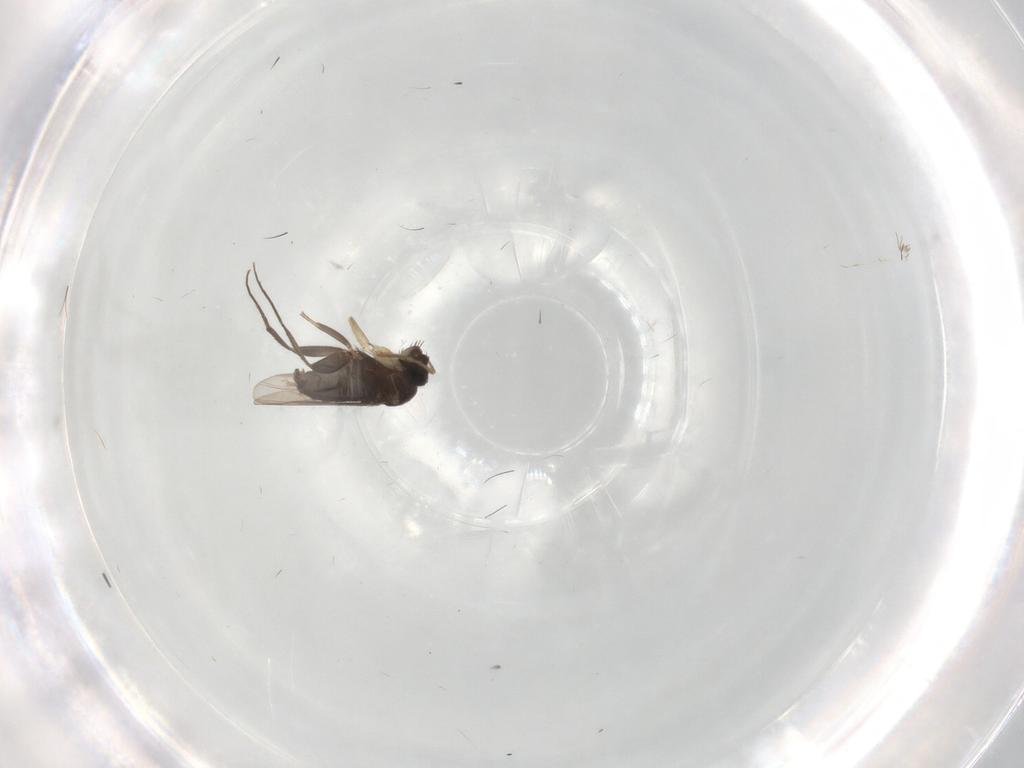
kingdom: Animalia
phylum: Arthropoda
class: Insecta
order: Diptera
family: Phoridae
